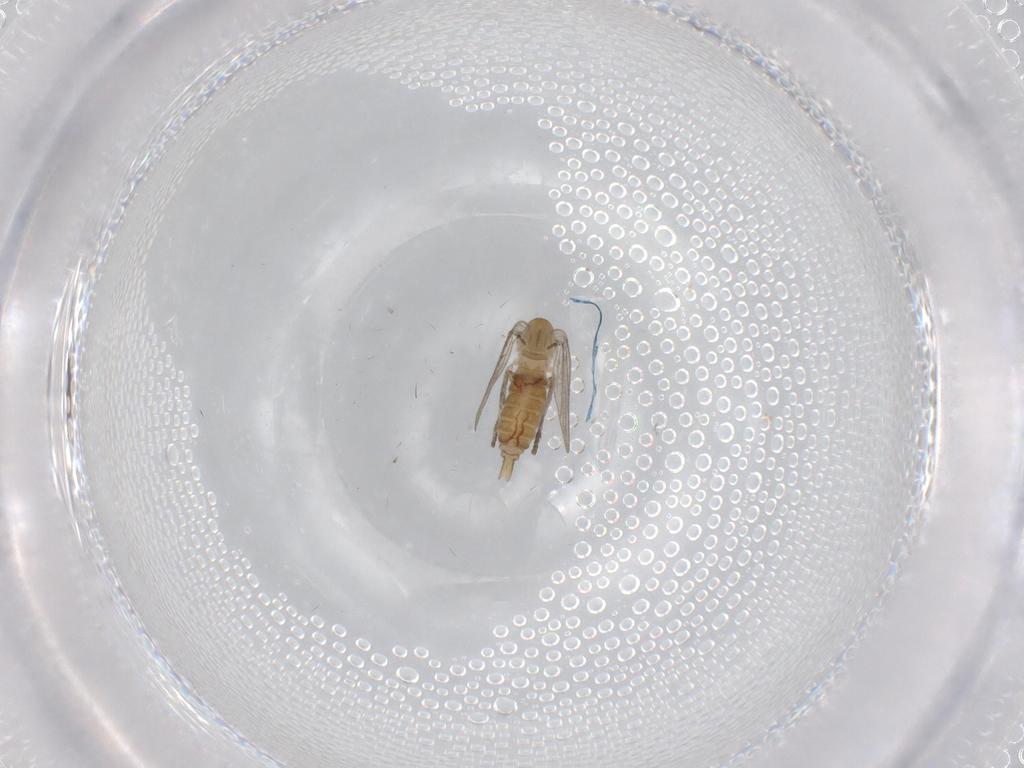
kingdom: Animalia
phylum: Arthropoda
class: Insecta
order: Diptera
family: Psychodidae
